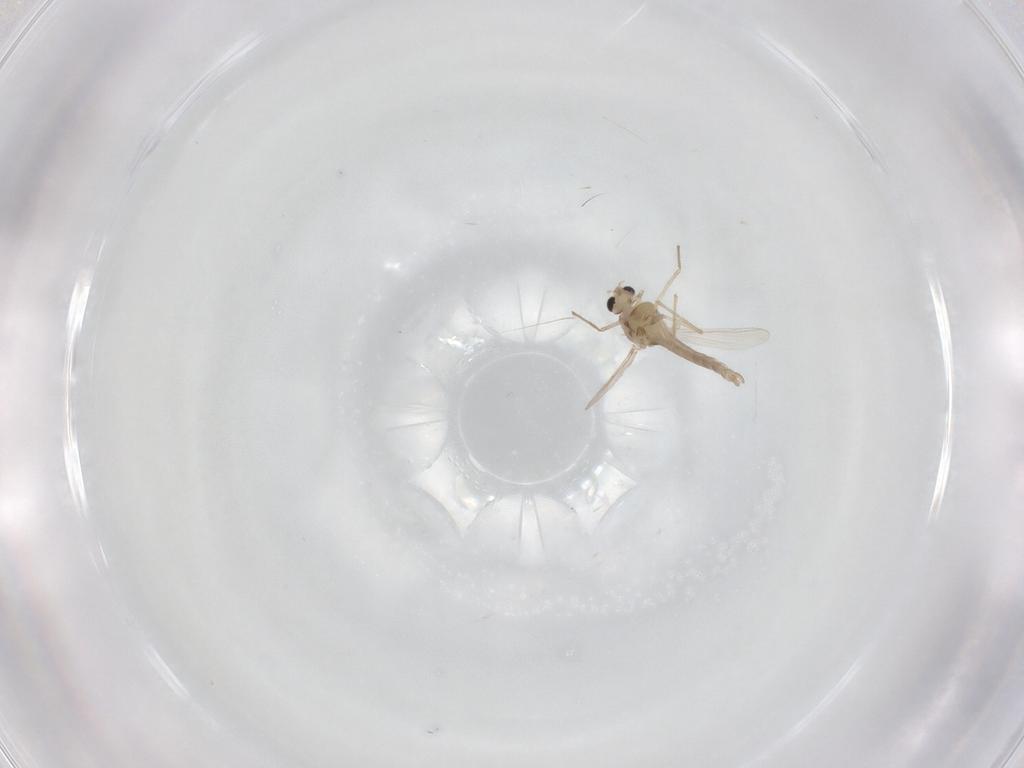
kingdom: Animalia
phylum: Arthropoda
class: Insecta
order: Diptera
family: Chironomidae
